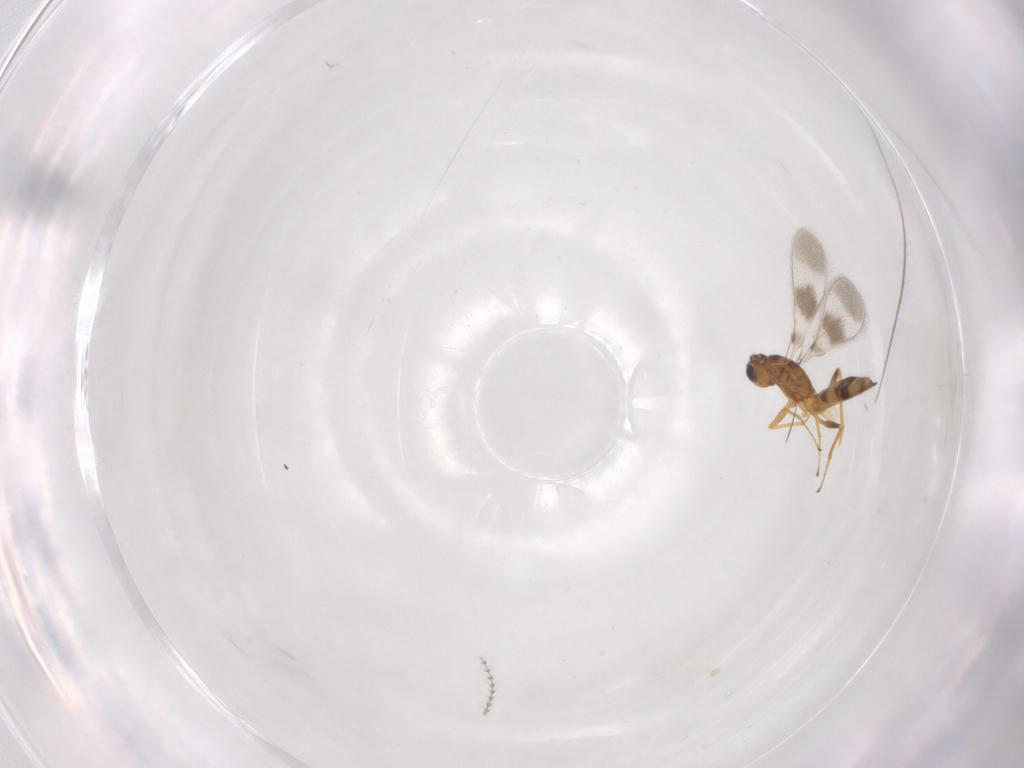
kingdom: Animalia
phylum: Arthropoda
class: Insecta
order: Hymenoptera
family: Mymaridae
